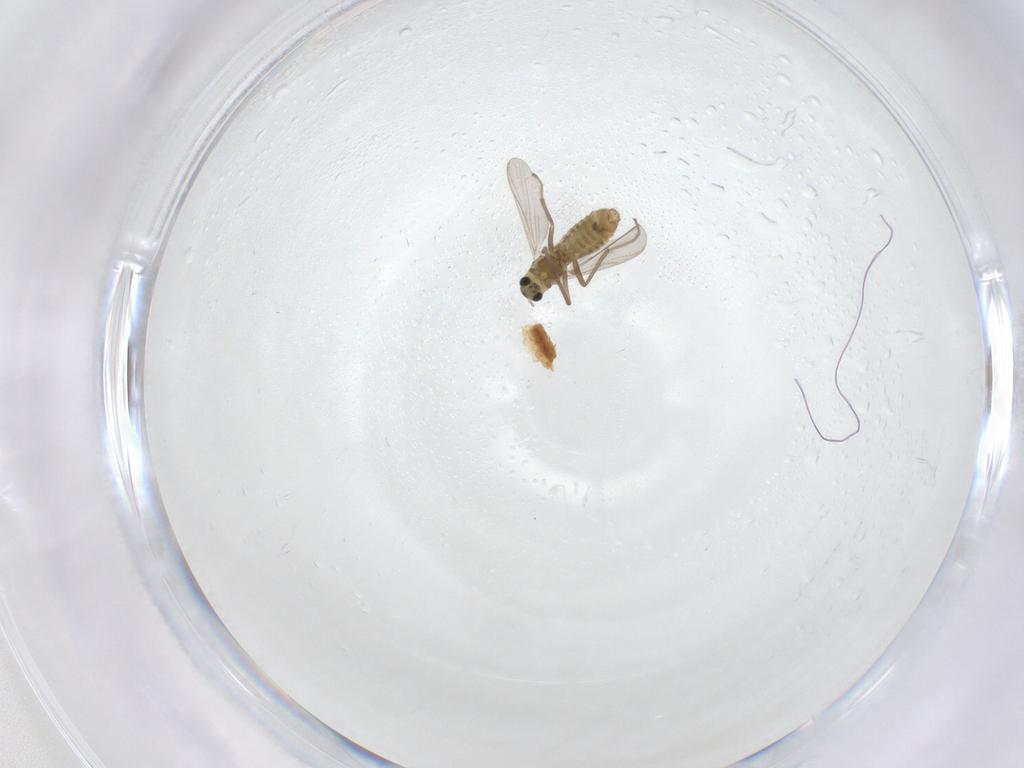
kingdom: Animalia
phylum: Arthropoda
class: Insecta
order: Diptera
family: Chironomidae
